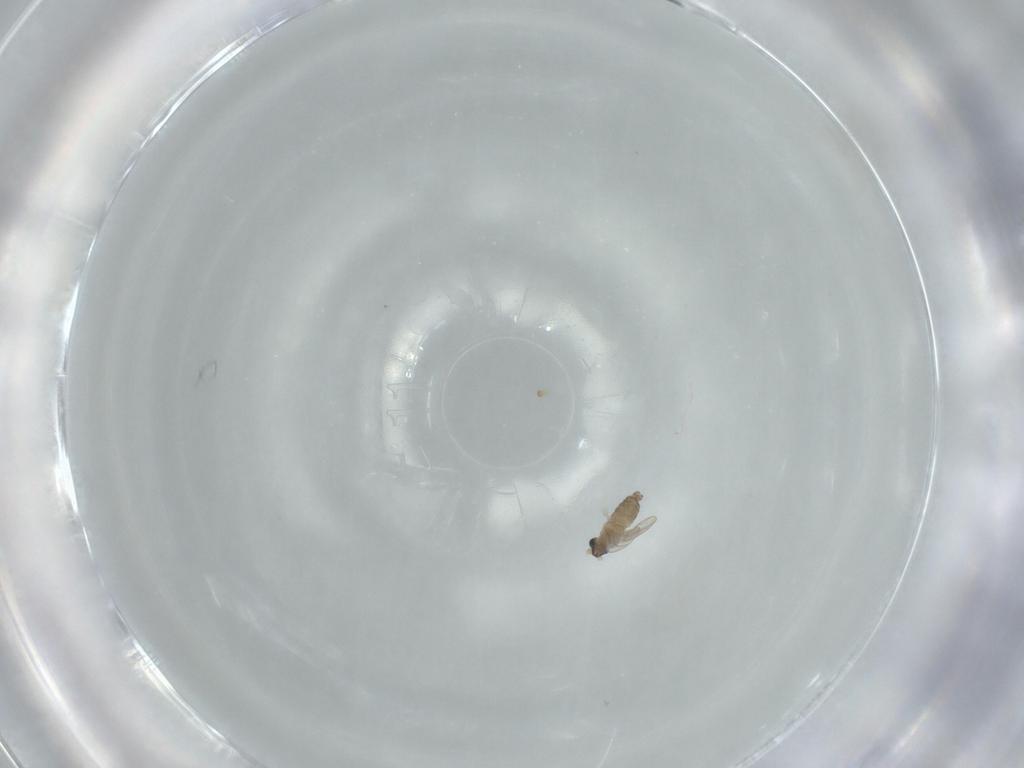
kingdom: Animalia
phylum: Arthropoda
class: Insecta
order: Diptera
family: Cecidomyiidae
